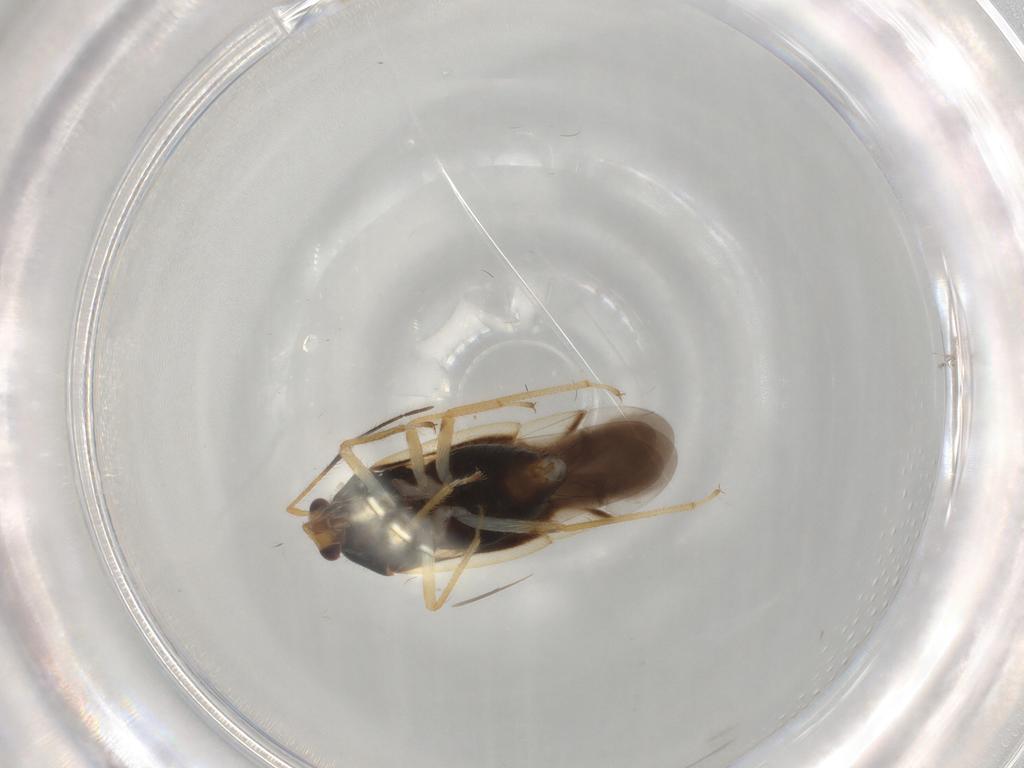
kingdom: Animalia
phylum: Arthropoda
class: Insecta
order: Hemiptera
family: Miridae
